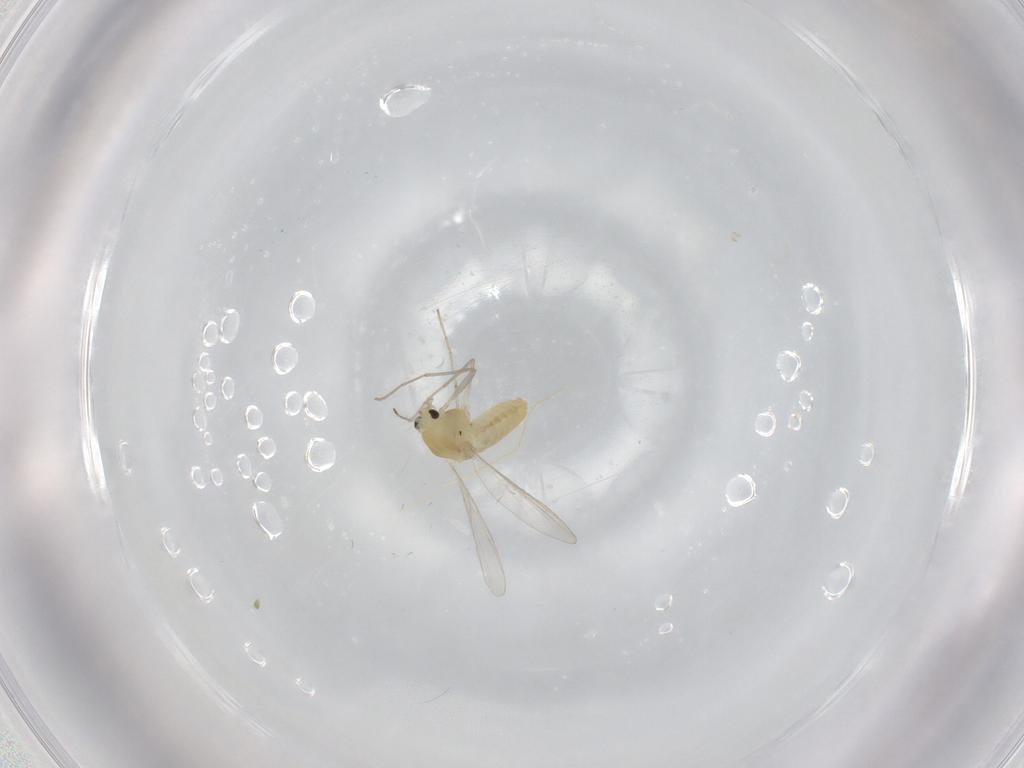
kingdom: Animalia
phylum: Arthropoda
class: Insecta
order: Diptera
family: Chironomidae
